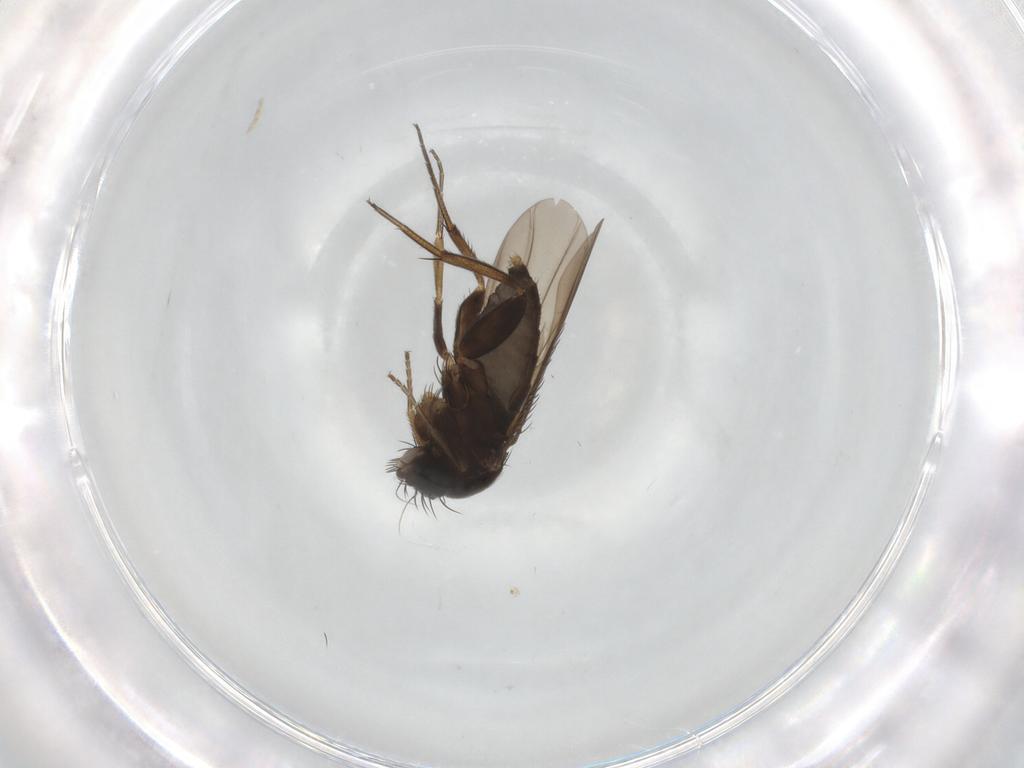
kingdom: Animalia
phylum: Arthropoda
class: Insecta
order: Diptera
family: Phoridae
